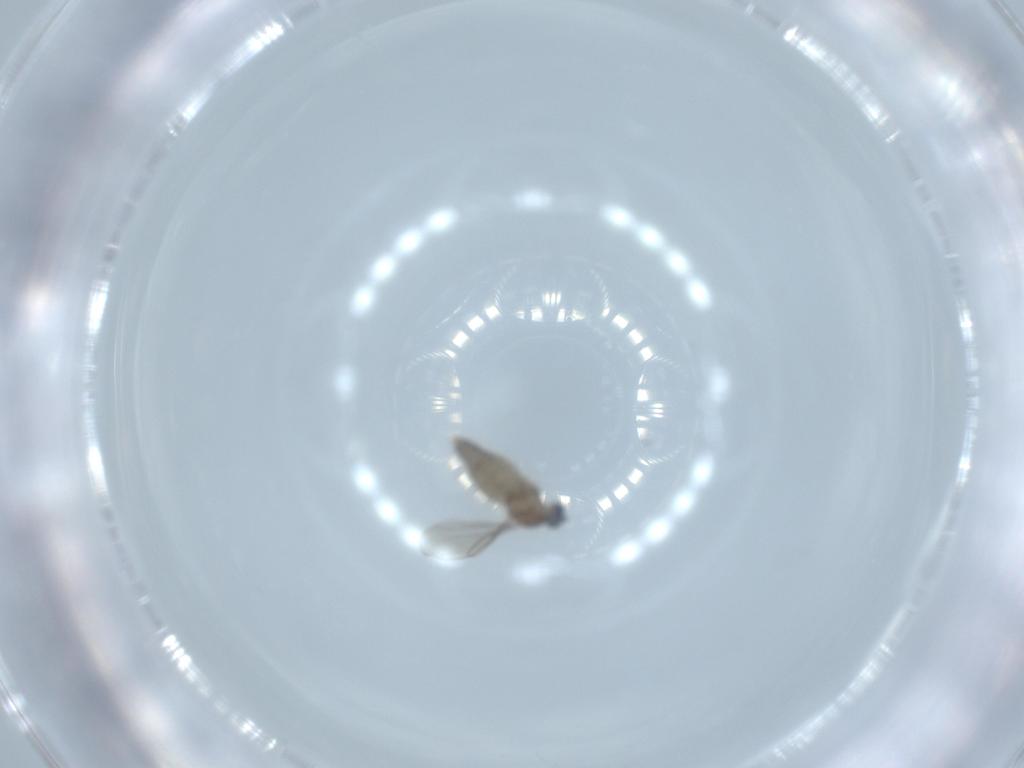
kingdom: Animalia
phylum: Arthropoda
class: Insecta
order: Diptera
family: Cecidomyiidae
